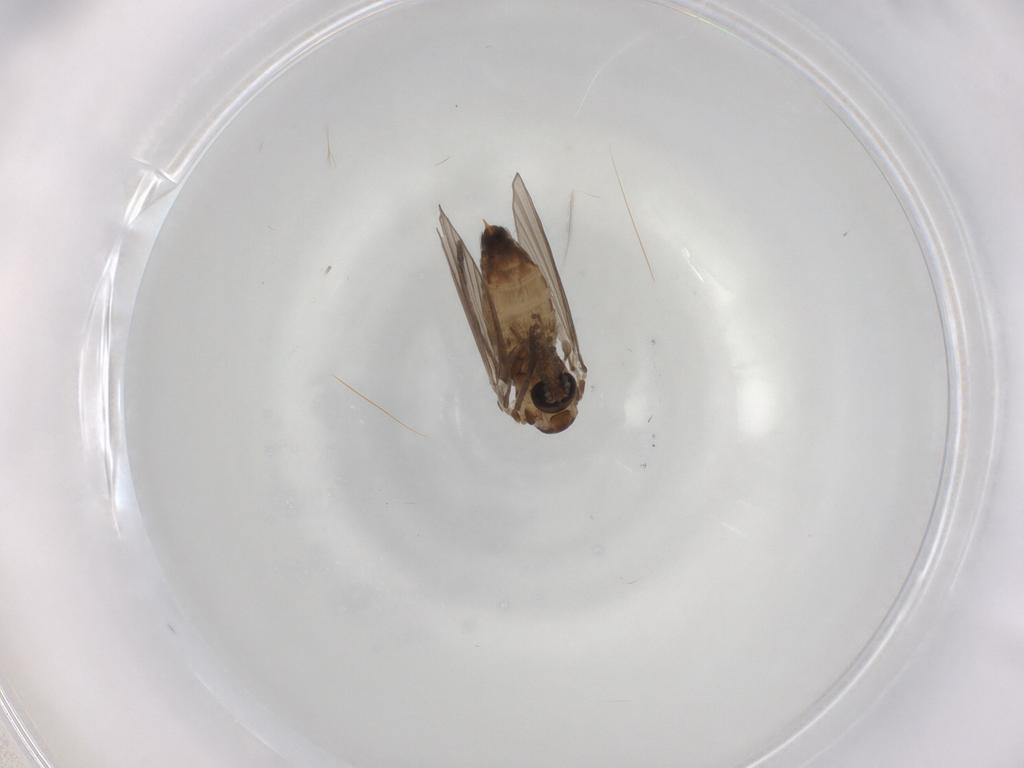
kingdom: Animalia
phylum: Arthropoda
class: Insecta
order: Diptera
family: Psychodidae
